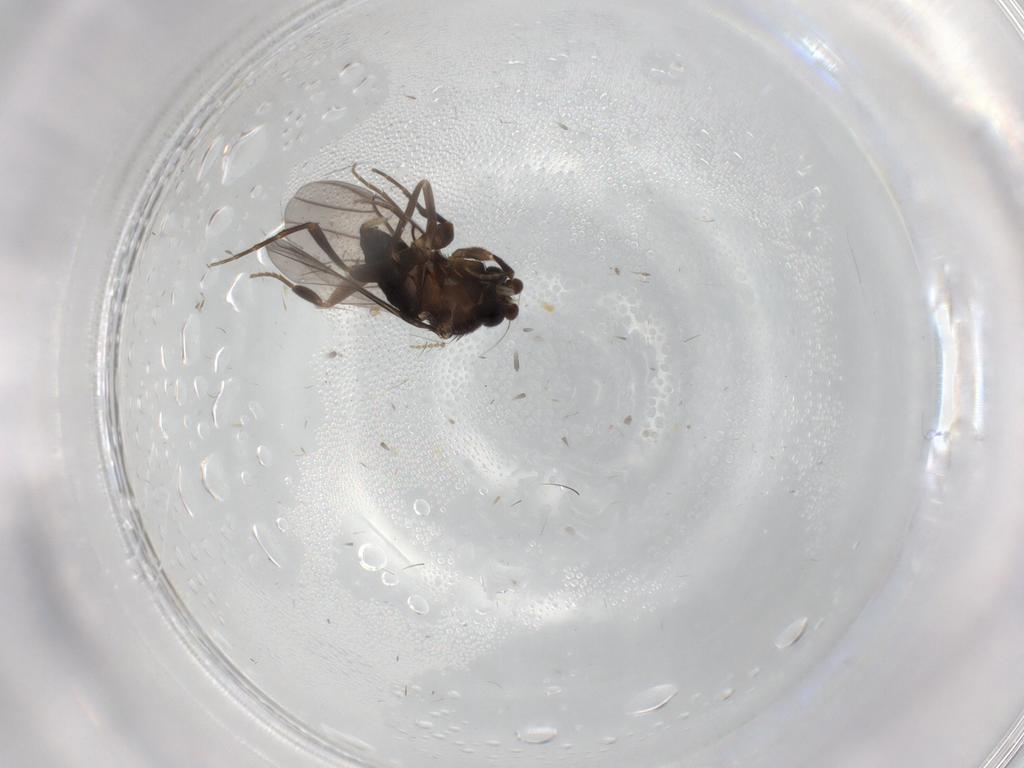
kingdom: Animalia
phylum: Arthropoda
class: Insecta
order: Diptera
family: Phoridae
